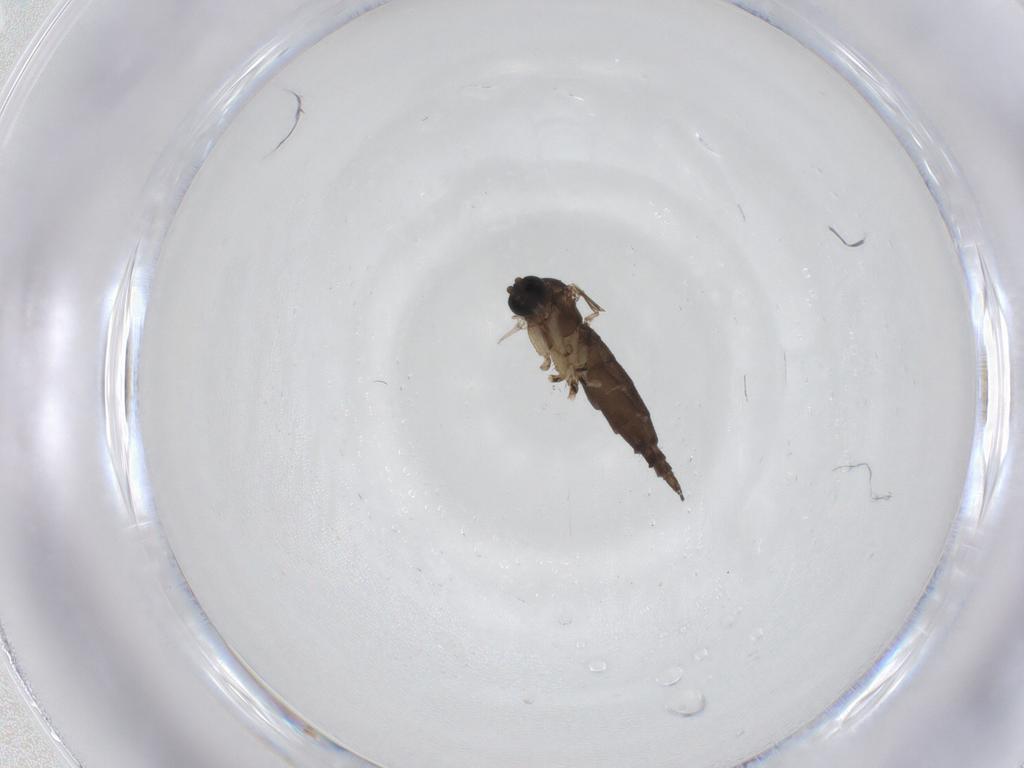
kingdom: Animalia
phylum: Arthropoda
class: Insecta
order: Diptera
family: Sciaridae
